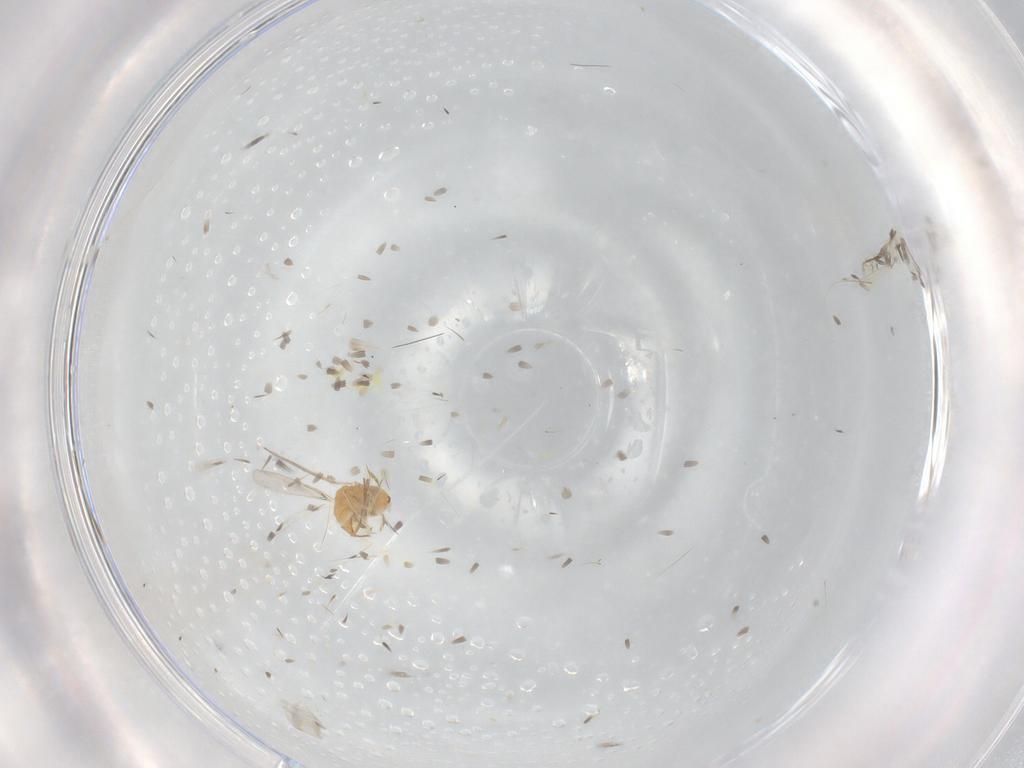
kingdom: Animalia
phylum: Arthropoda
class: Insecta
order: Hymenoptera
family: Aphelinidae
